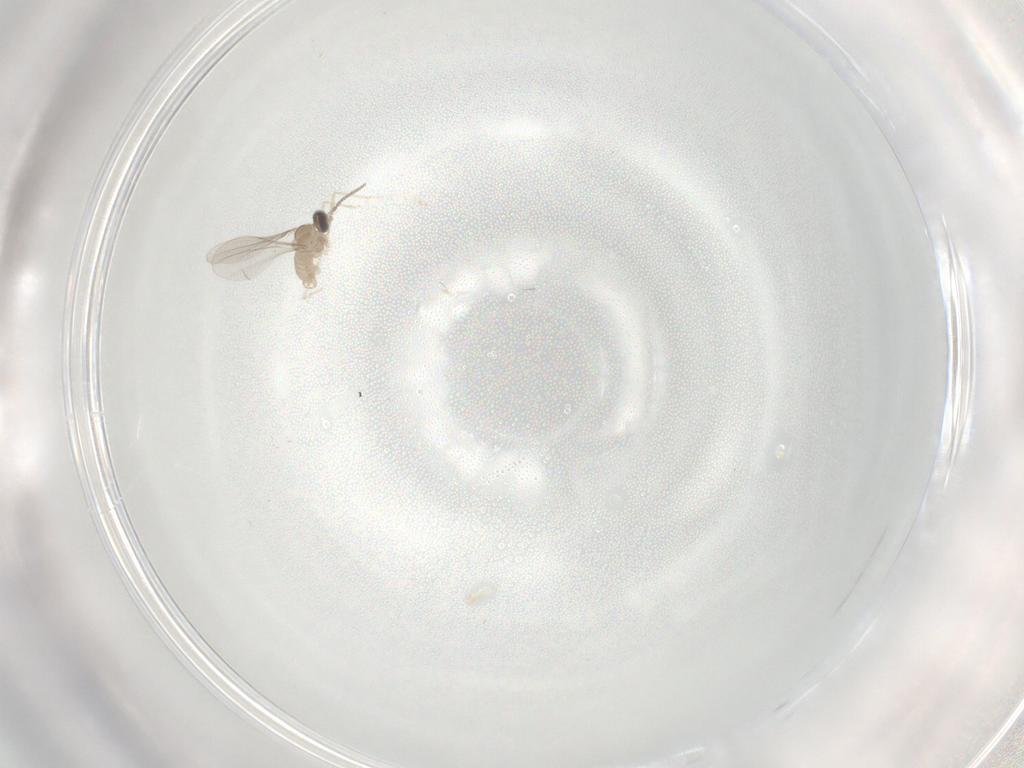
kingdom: Animalia
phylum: Arthropoda
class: Insecta
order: Diptera
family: Cecidomyiidae
